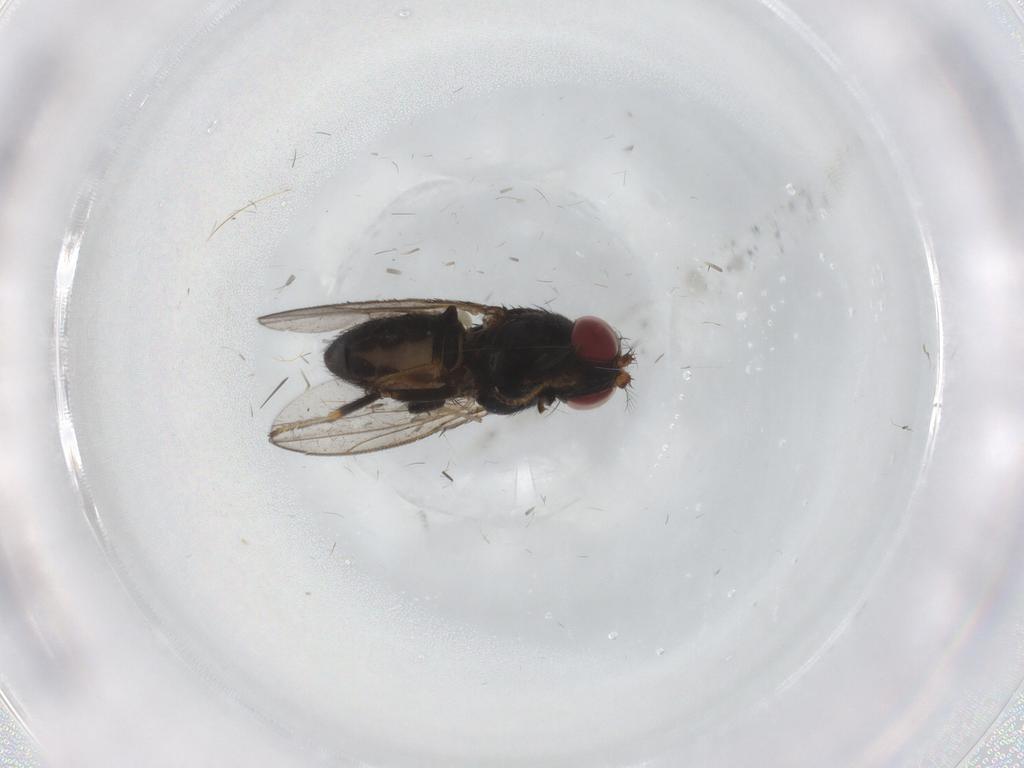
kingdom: Animalia
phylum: Arthropoda
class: Insecta
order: Diptera
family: Ephydridae
